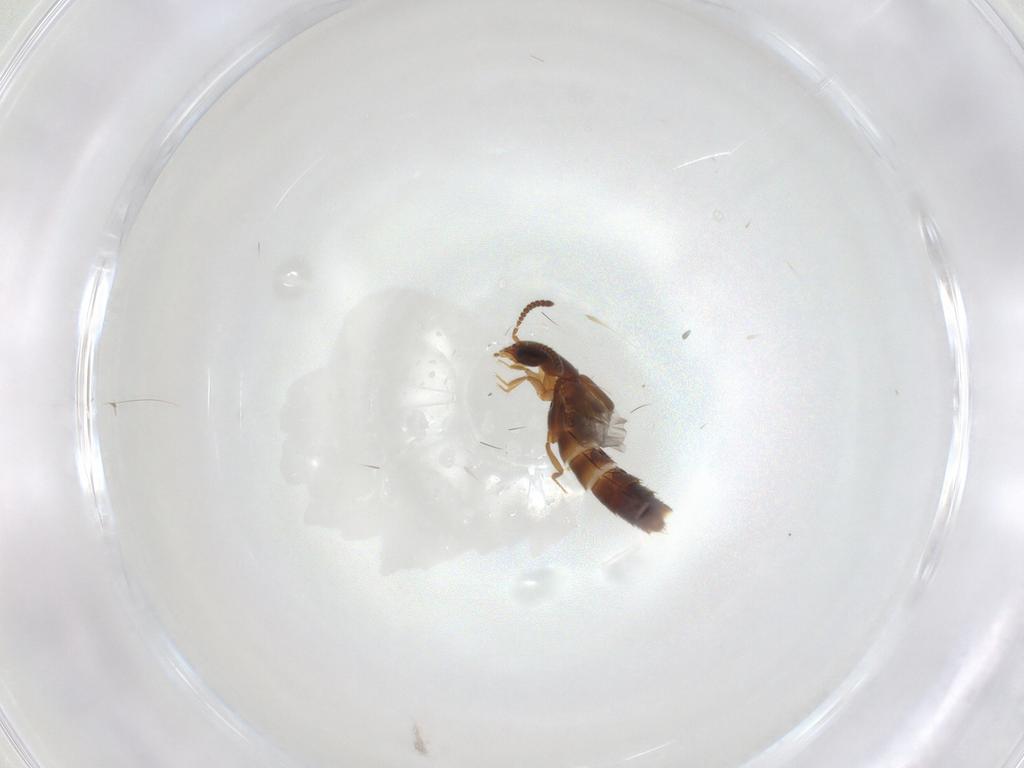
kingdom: Animalia
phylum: Arthropoda
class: Insecta
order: Coleoptera
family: Staphylinidae
